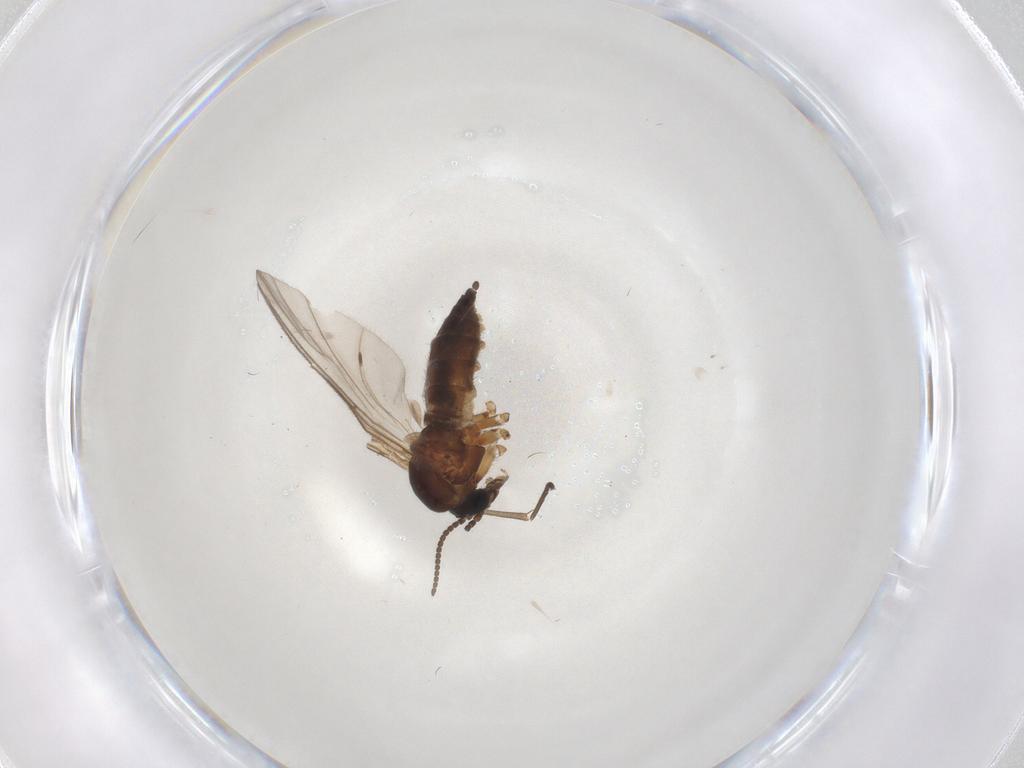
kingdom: Animalia
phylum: Arthropoda
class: Insecta
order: Diptera
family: Sciaridae
